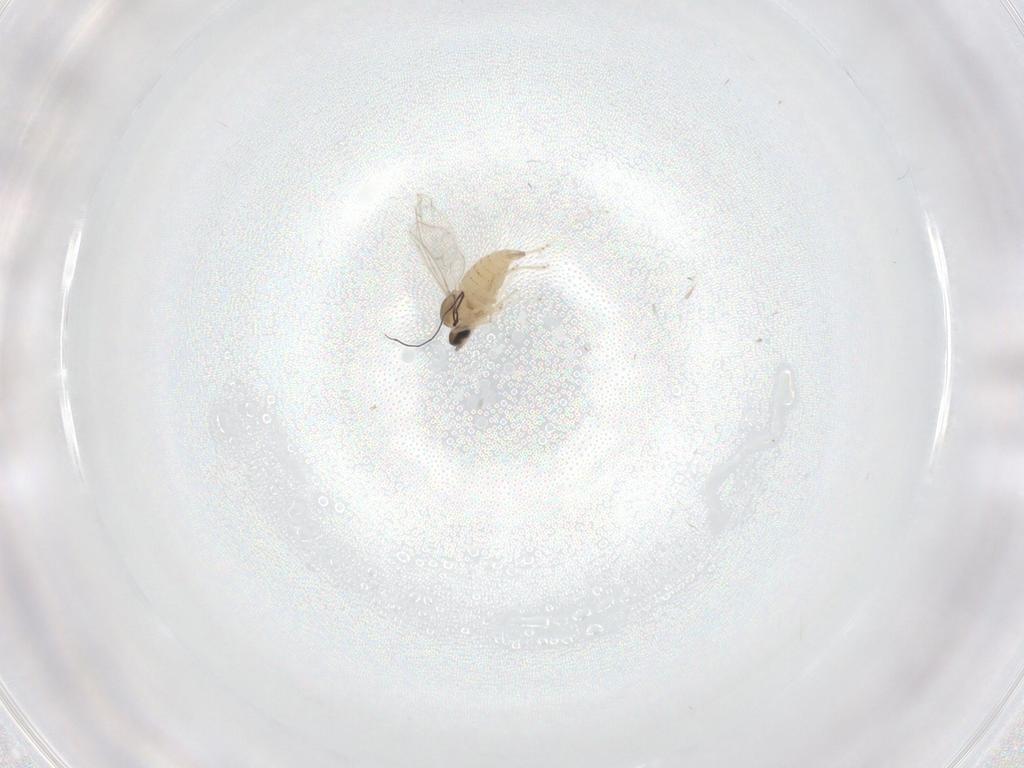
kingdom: Animalia
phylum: Arthropoda
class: Insecta
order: Diptera
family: Cecidomyiidae
